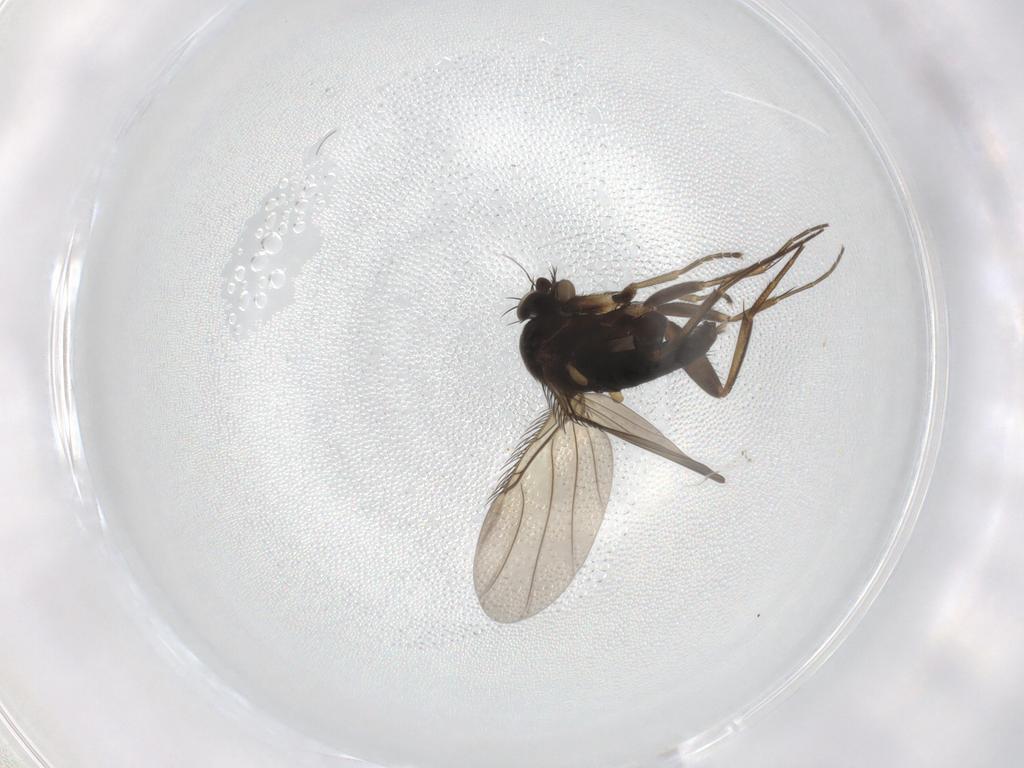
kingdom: Animalia
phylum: Arthropoda
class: Insecta
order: Diptera
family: Phoridae
